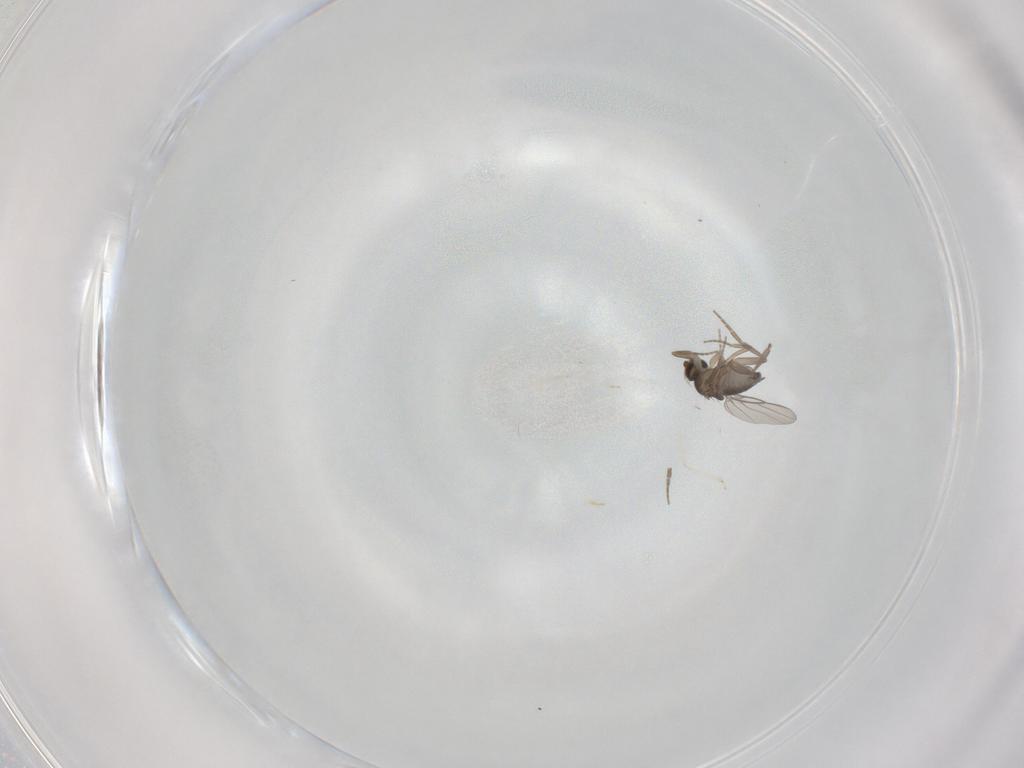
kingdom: Animalia
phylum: Arthropoda
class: Insecta
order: Diptera
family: Phoridae
